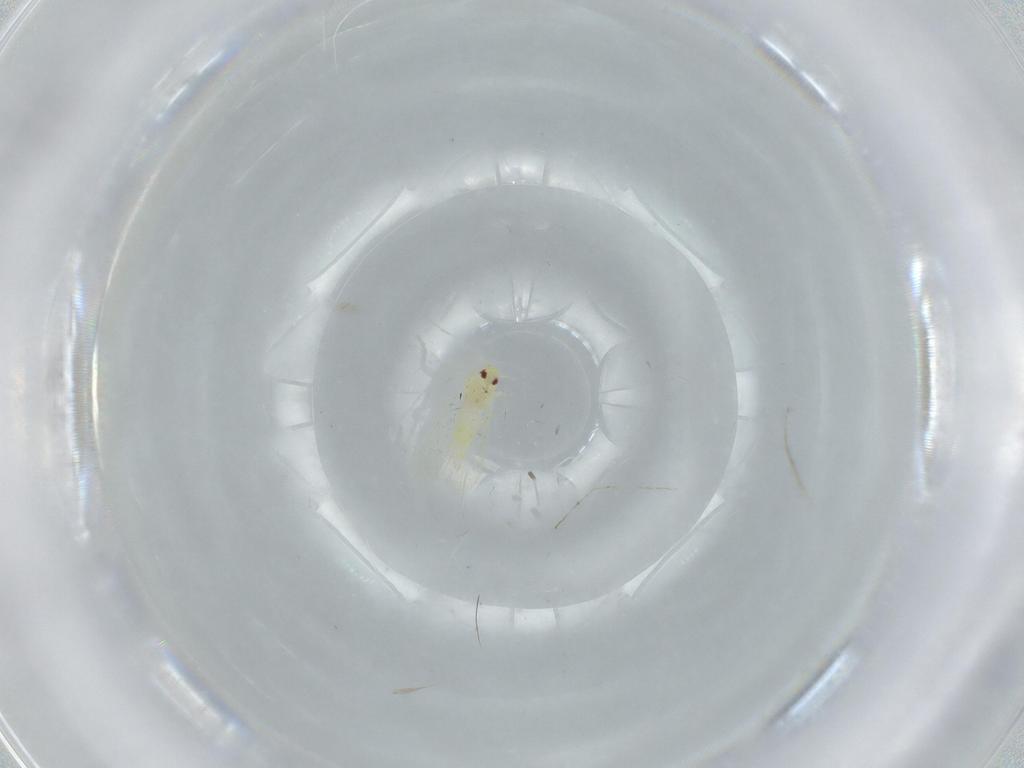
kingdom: Animalia
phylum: Arthropoda
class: Insecta
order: Hemiptera
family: Aleyrodidae
